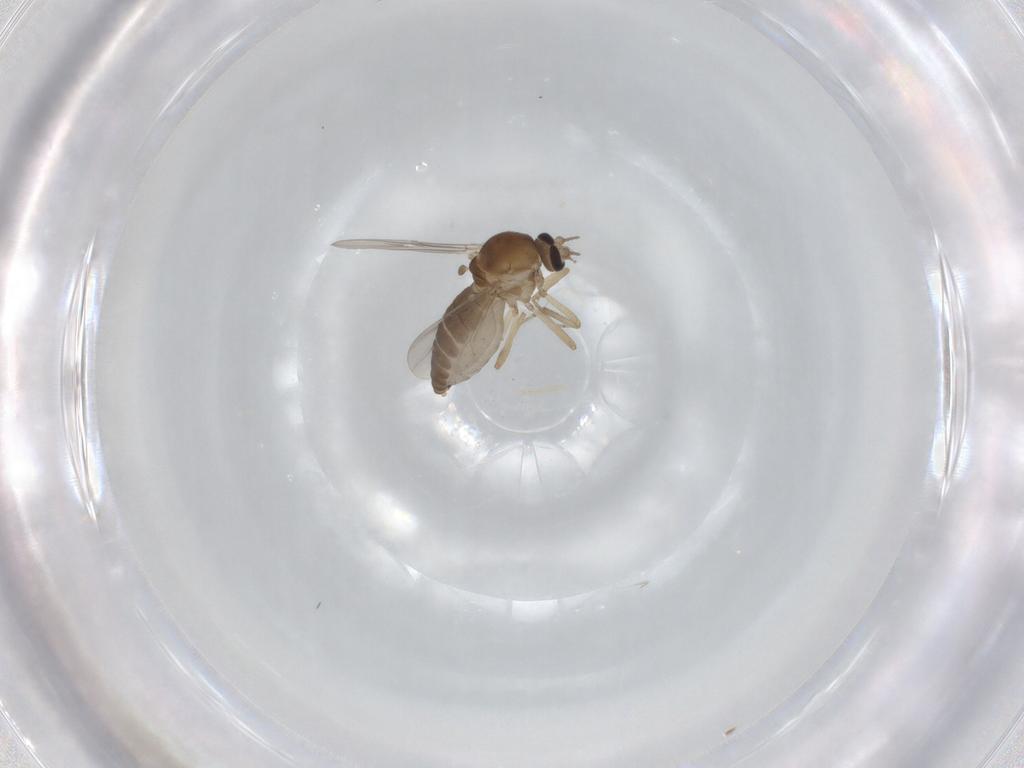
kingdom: Animalia
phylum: Arthropoda
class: Insecta
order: Diptera
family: Ceratopogonidae
